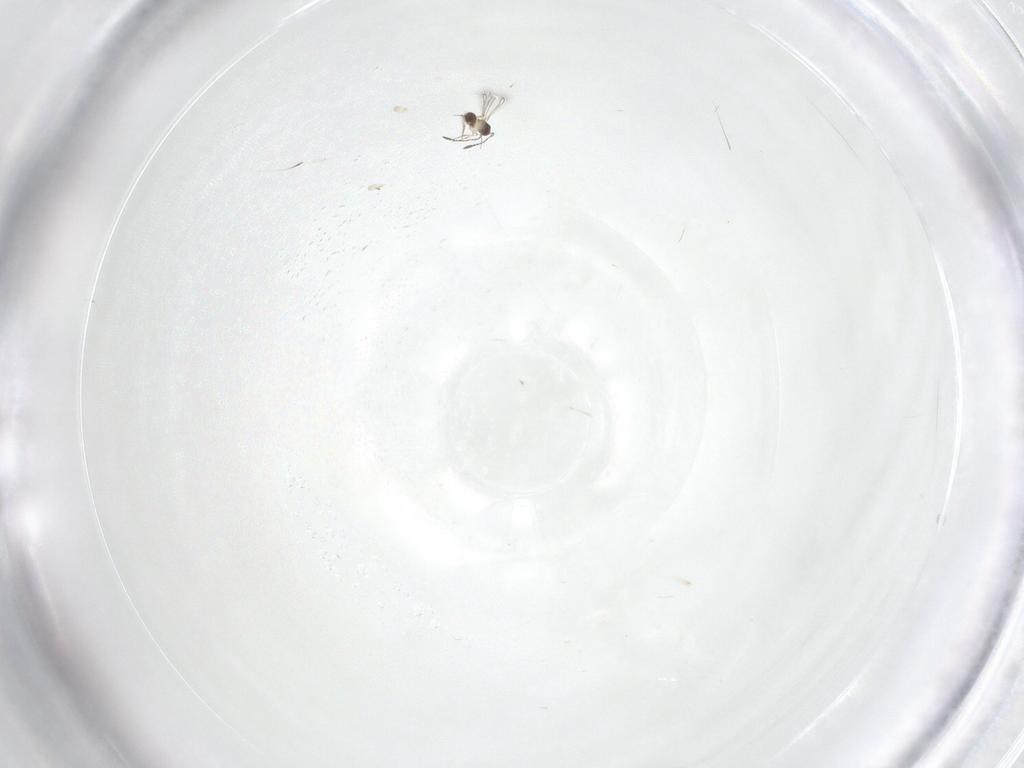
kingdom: Animalia
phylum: Arthropoda
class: Insecta
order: Hymenoptera
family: Mymaridae
